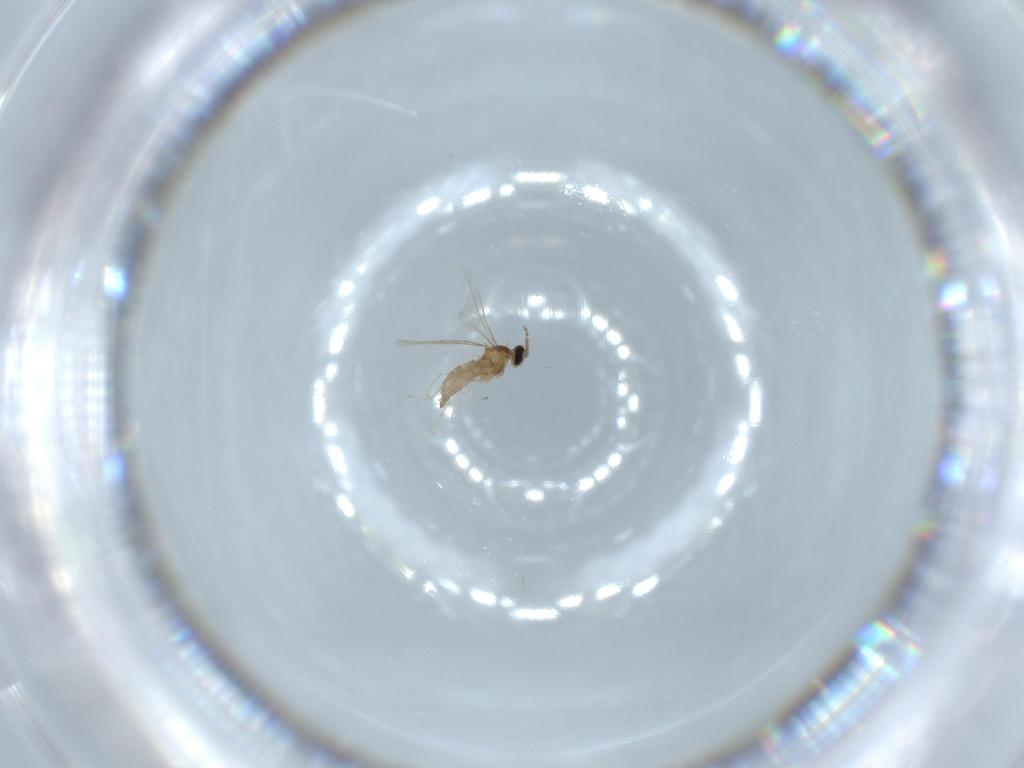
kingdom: Animalia
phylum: Arthropoda
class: Insecta
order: Diptera
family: Cecidomyiidae
